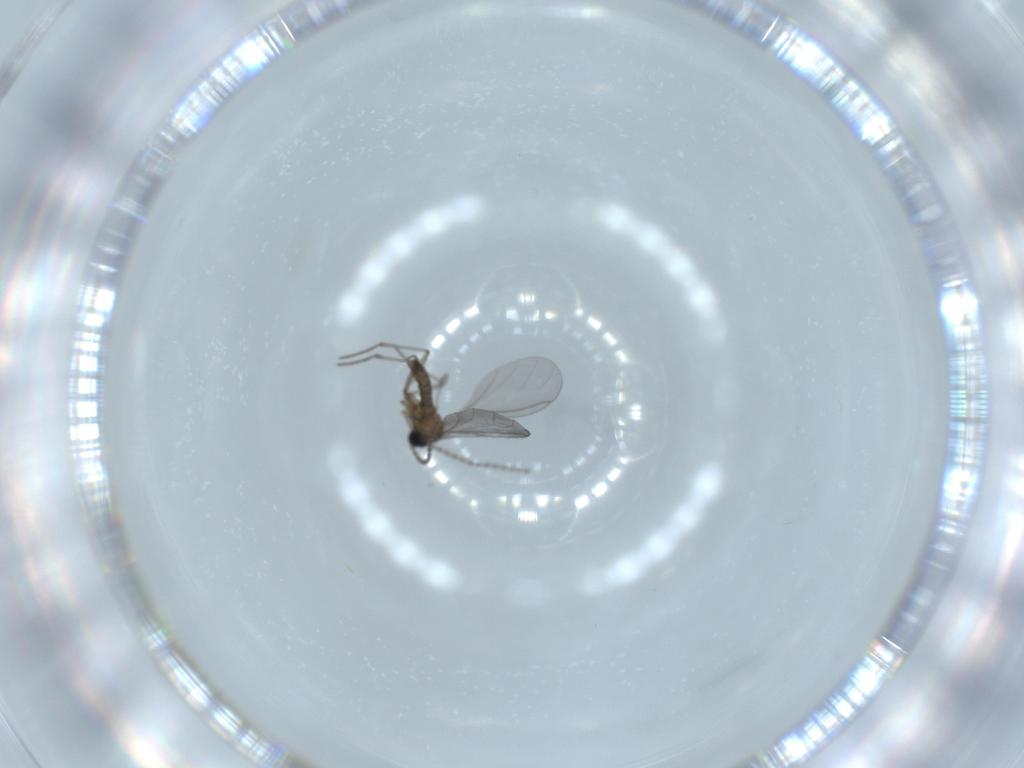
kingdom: Animalia
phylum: Arthropoda
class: Insecta
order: Diptera
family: Sciaridae
